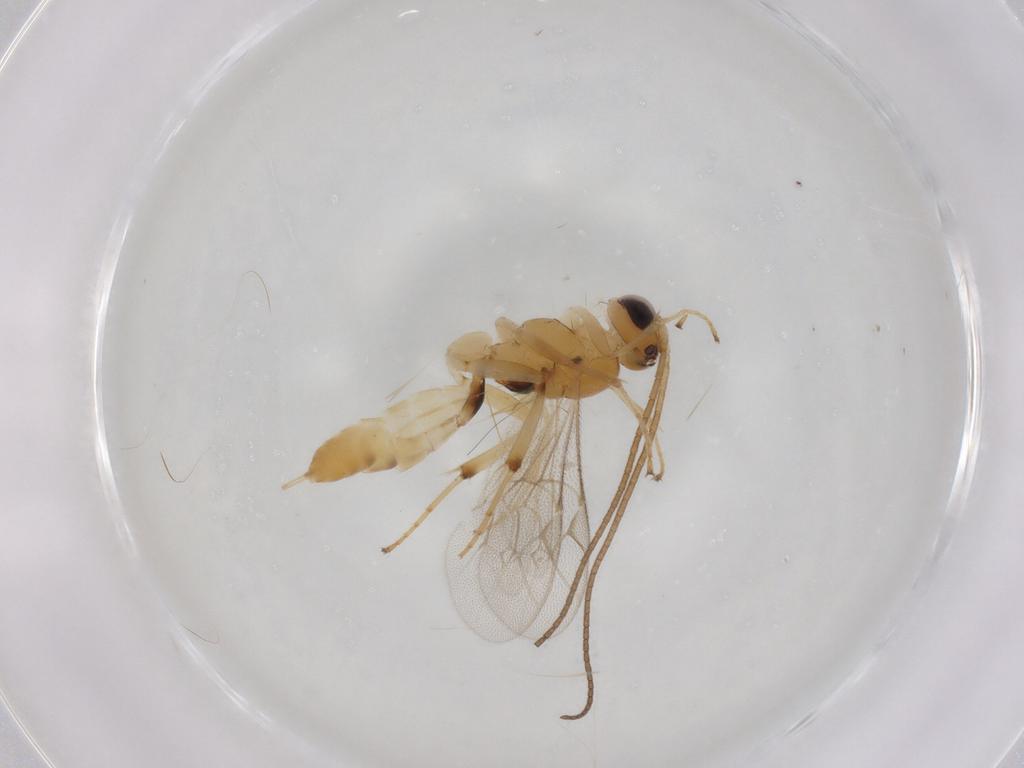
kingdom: Animalia
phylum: Arthropoda
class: Insecta
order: Hymenoptera
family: Ichneumonidae
